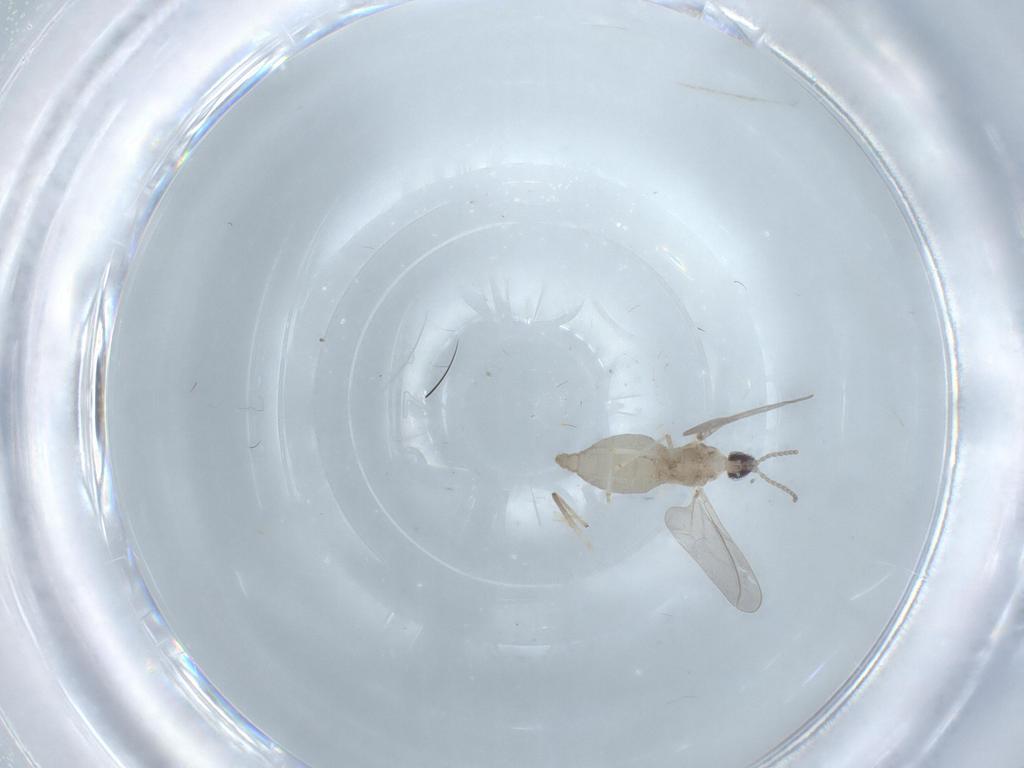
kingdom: Animalia
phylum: Arthropoda
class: Insecta
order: Diptera
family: Cecidomyiidae
